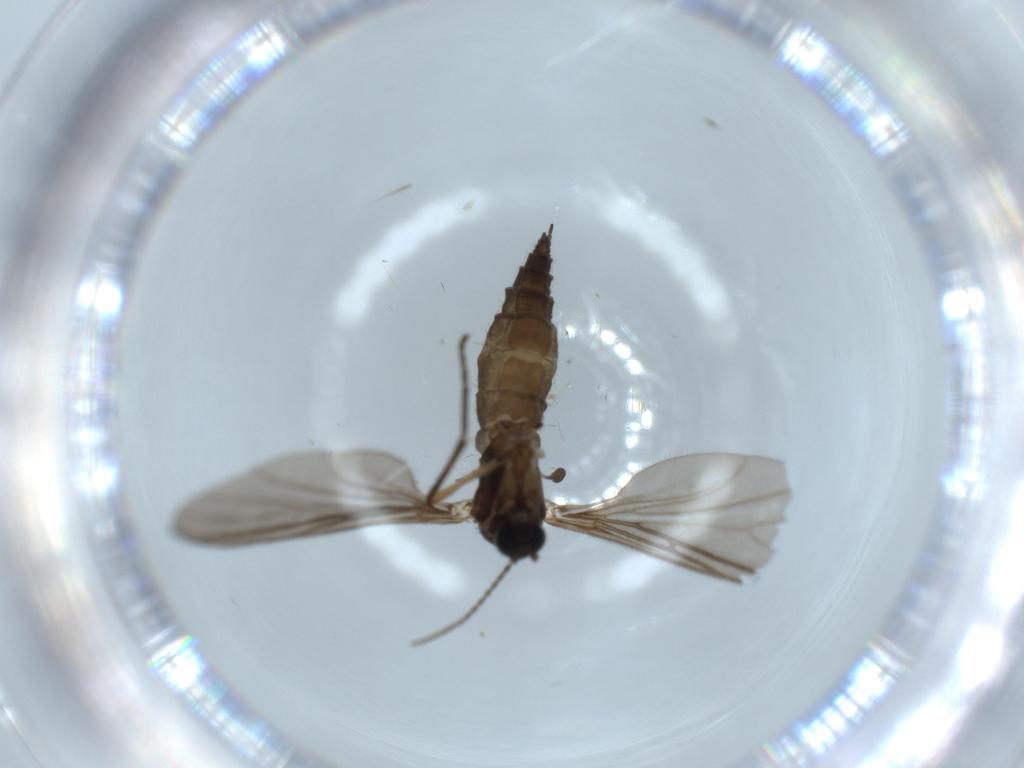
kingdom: Animalia
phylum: Arthropoda
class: Insecta
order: Diptera
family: Sciaridae
